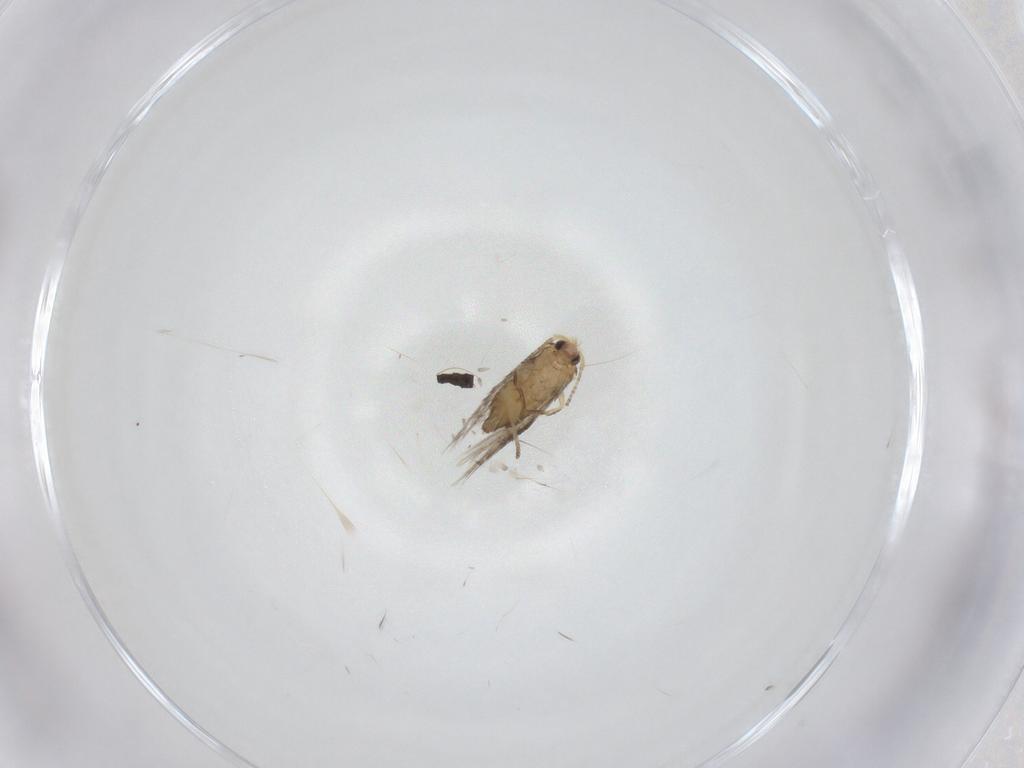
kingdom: Animalia
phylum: Arthropoda
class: Insecta
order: Lepidoptera
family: Nepticulidae
